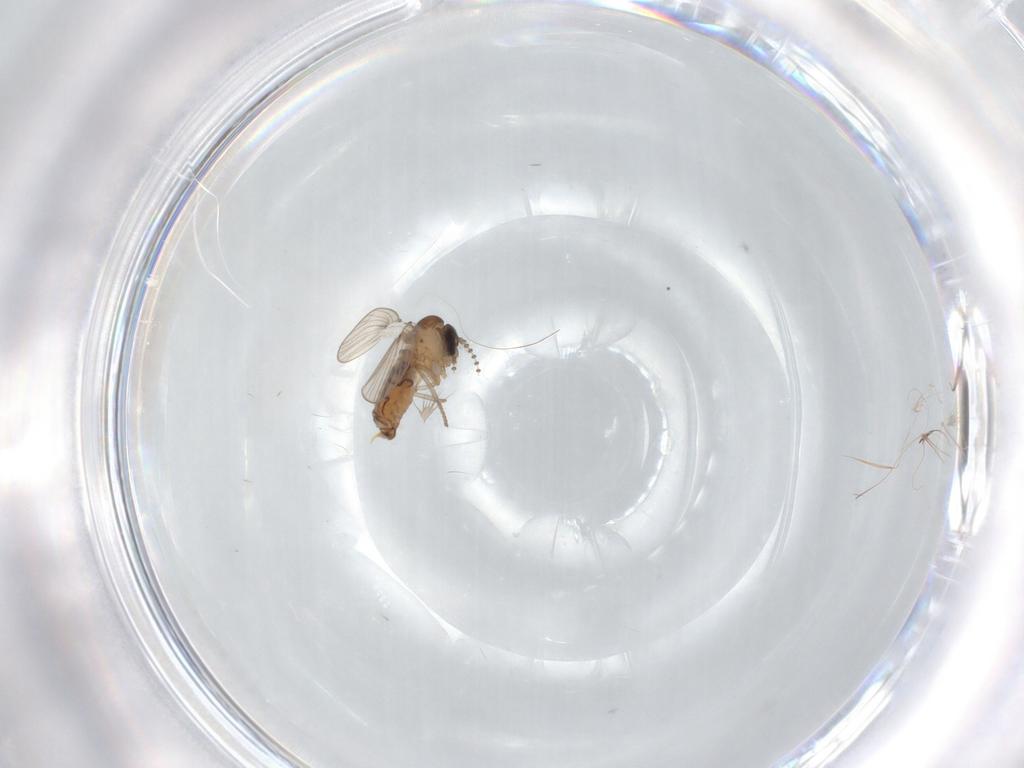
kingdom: Animalia
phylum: Arthropoda
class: Insecta
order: Diptera
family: Psychodidae
